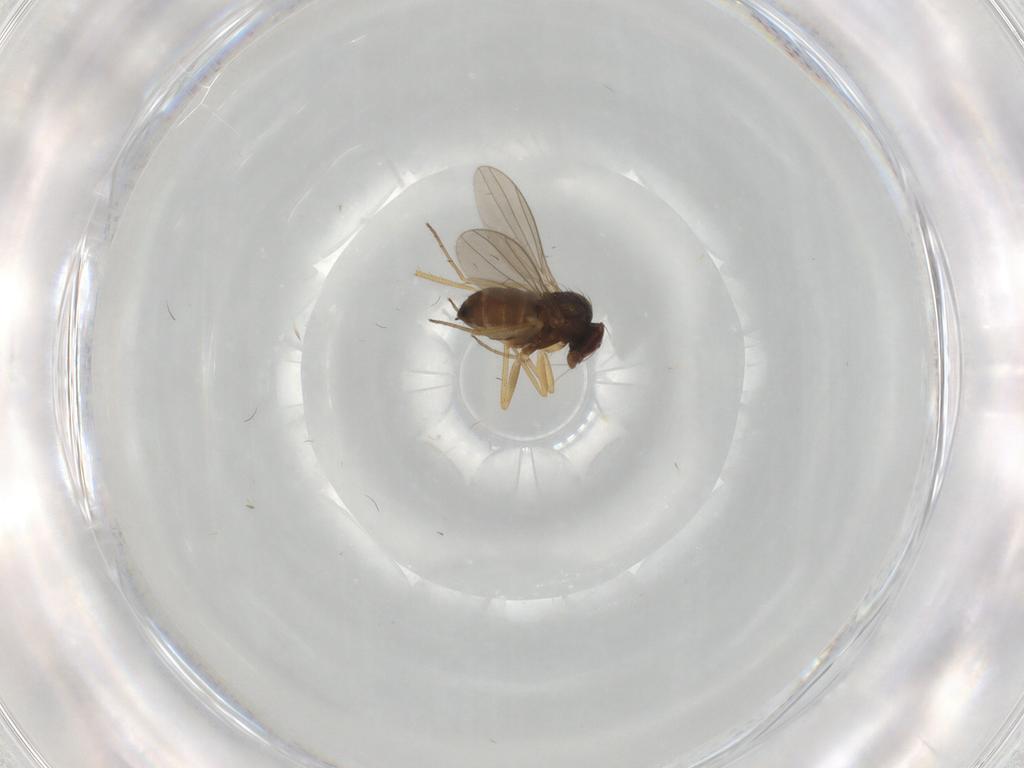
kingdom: Animalia
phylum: Arthropoda
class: Insecta
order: Diptera
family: Dolichopodidae
